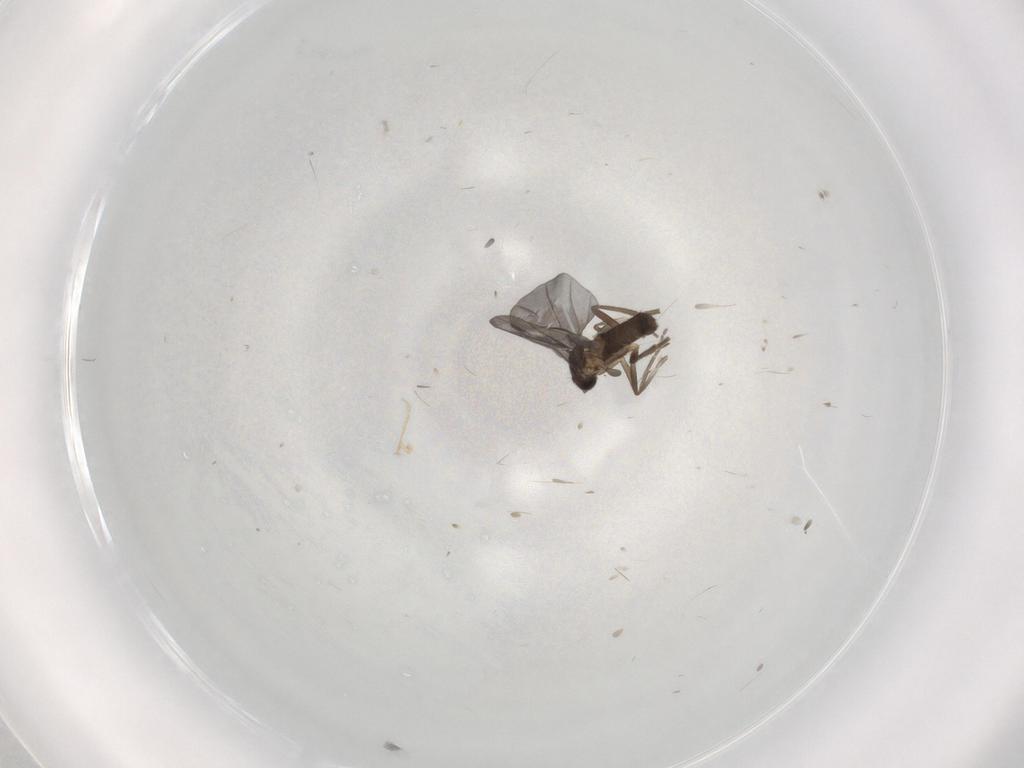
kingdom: Animalia
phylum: Arthropoda
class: Insecta
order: Diptera
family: Phoridae
